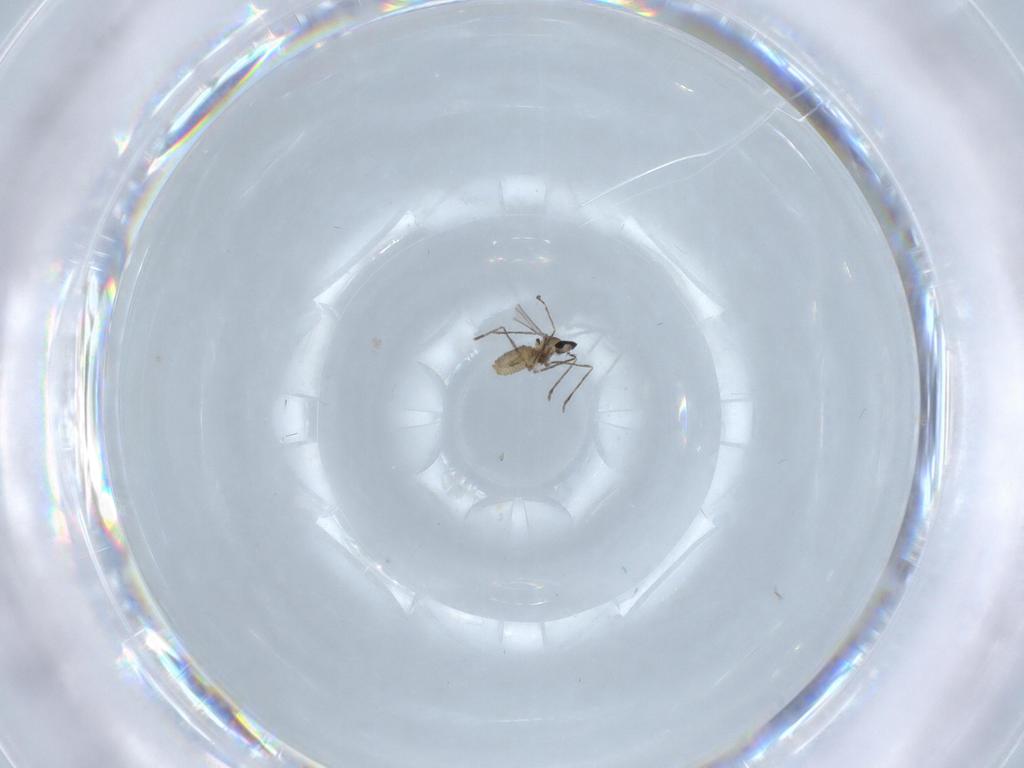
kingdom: Animalia
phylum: Arthropoda
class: Insecta
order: Diptera
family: Cecidomyiidae
